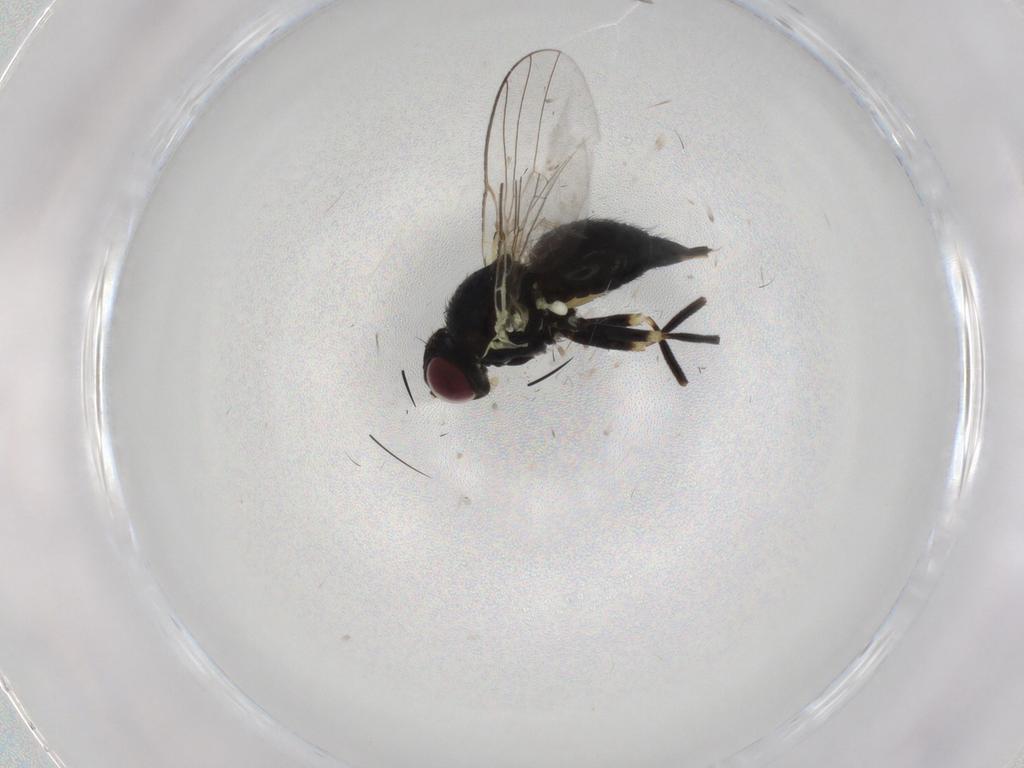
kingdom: Animalia
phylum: Arthropoda
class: Insecta
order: Diptera
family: Agromyzidae
